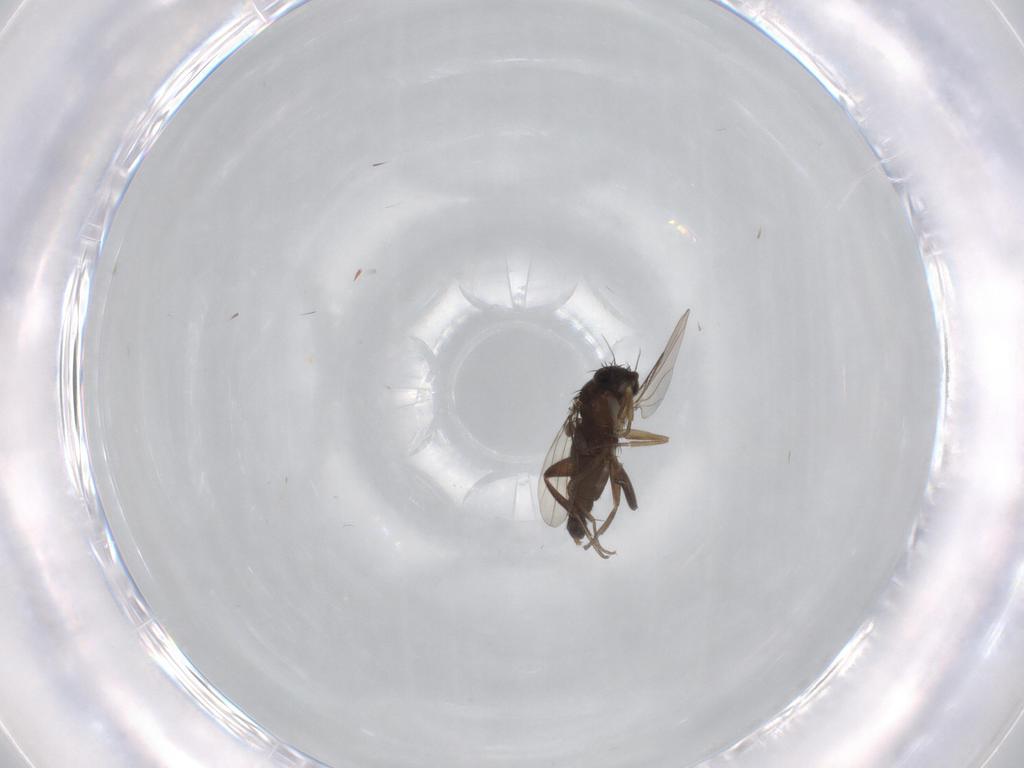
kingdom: Animalia
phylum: Arthropoda
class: Insecta
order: Diptera
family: Phoridae
